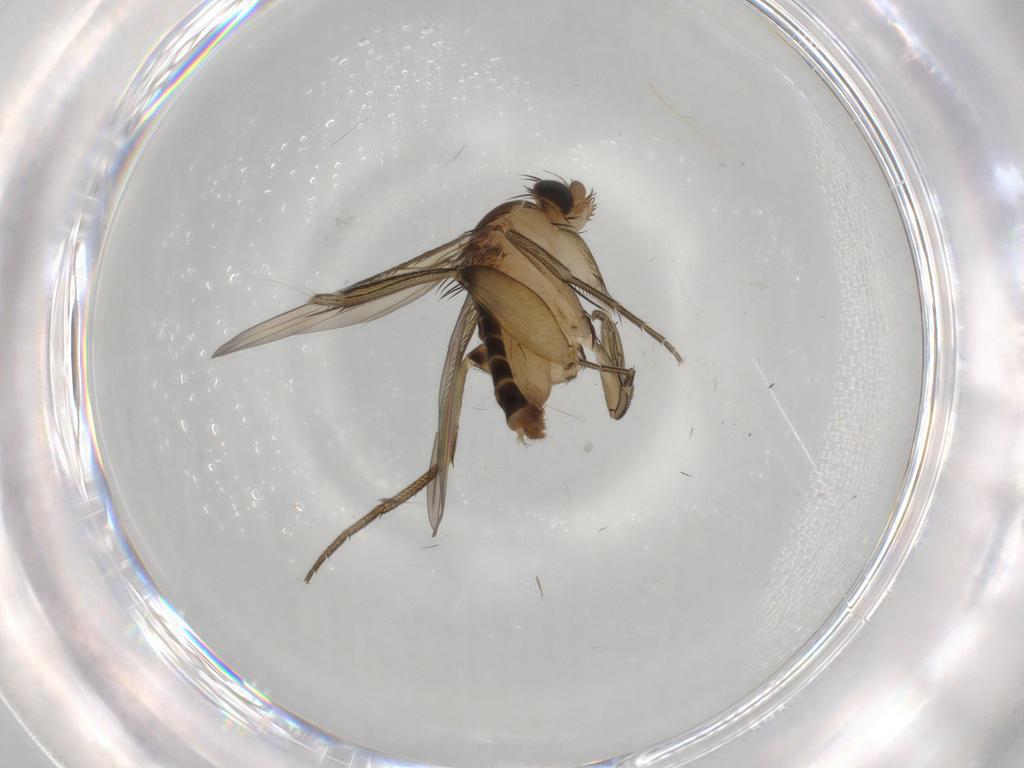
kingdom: Animalia
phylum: Arthropoda
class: Insecta
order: Diptera
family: Phoridae
